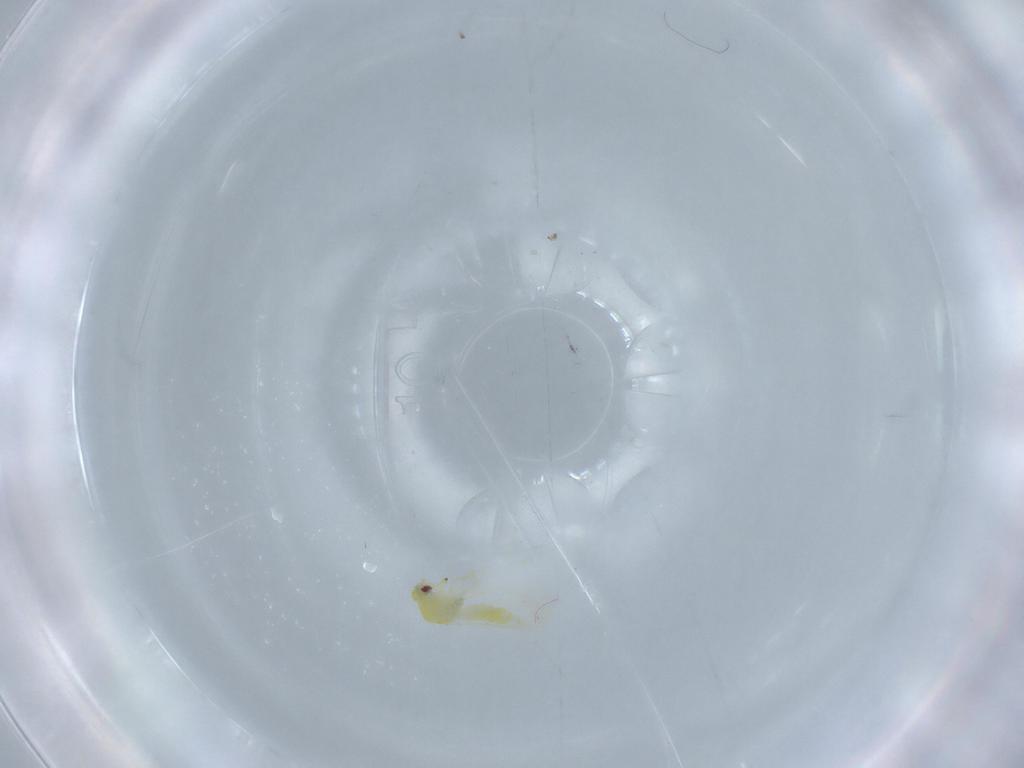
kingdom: Animalia
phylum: Arthropoda
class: Insecta
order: Hemiptera
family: Aleyrodidae
